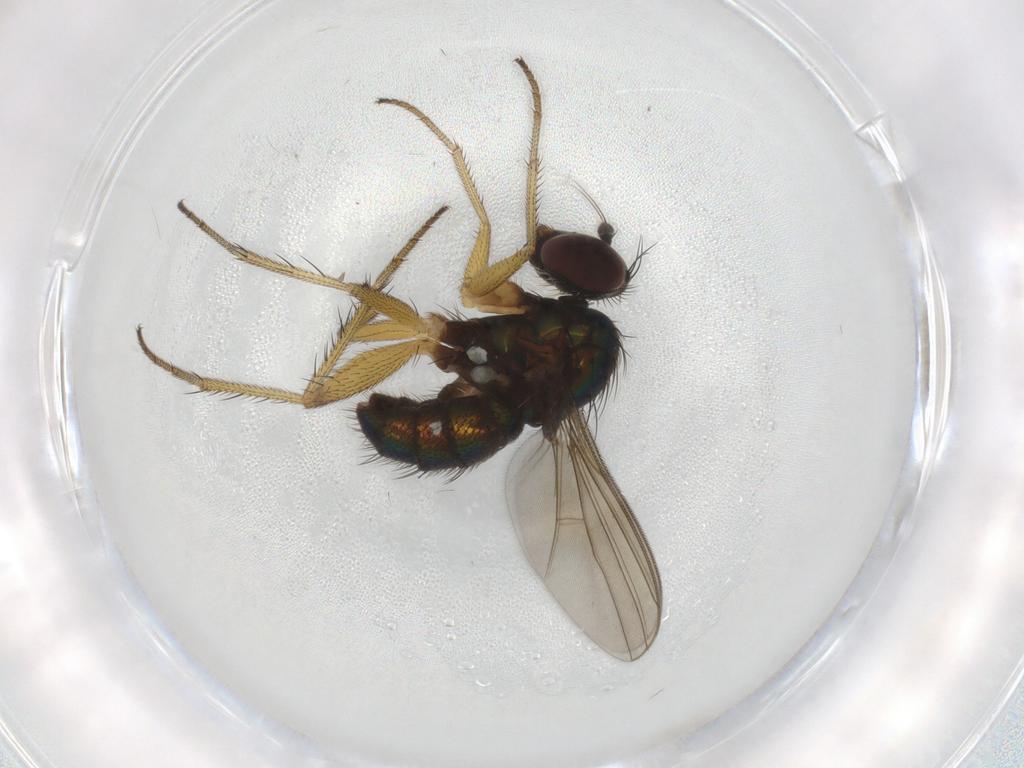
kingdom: Animalia
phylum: Arthropoda
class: Insecta
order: Diptera
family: Dolichopodidae
